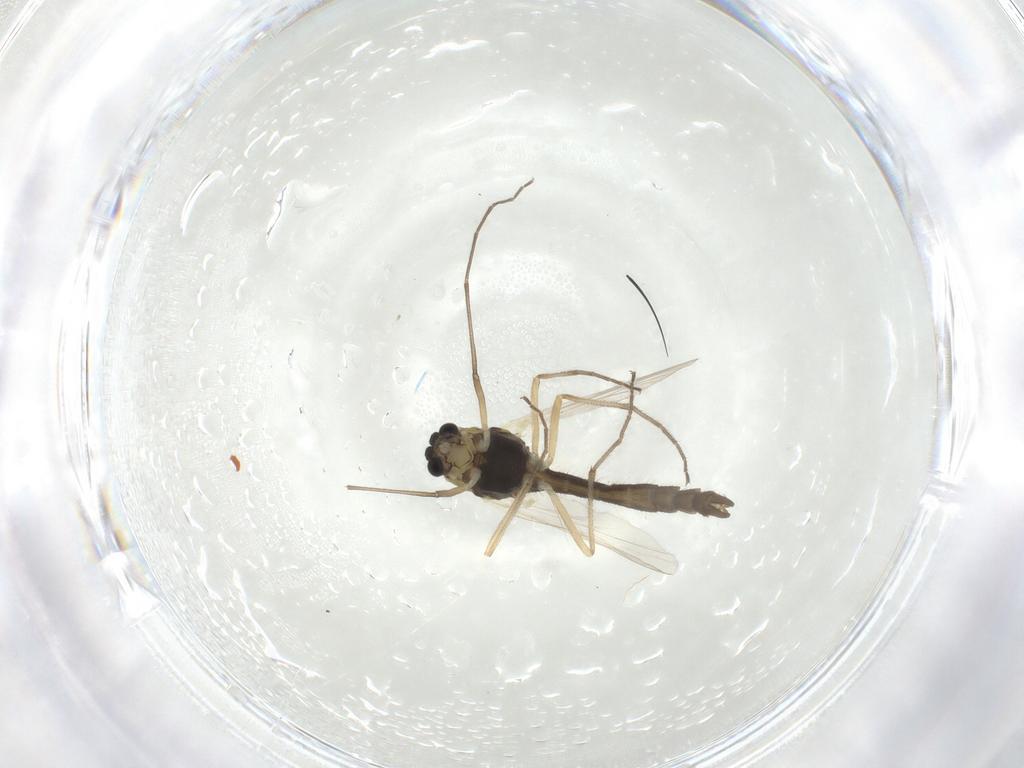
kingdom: Animalia
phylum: Arthropoda
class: Insecta
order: Diptera
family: Chironomidae
